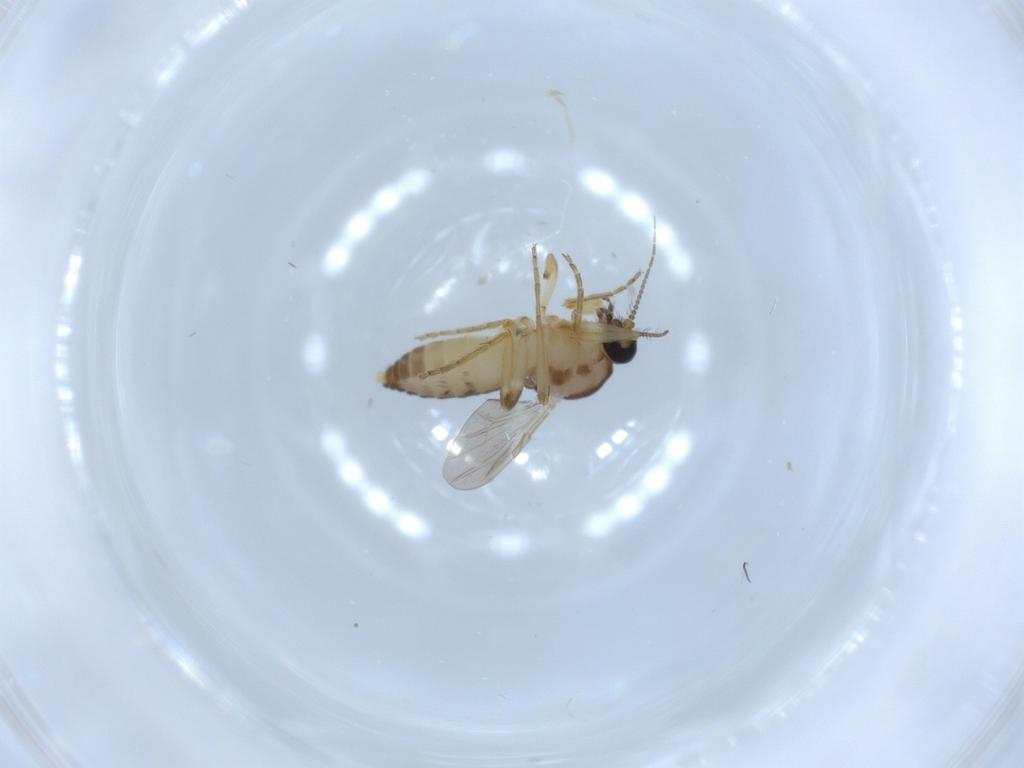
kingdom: Animalia
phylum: Arthropoda
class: Insecta
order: Diptera
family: Ceratopogonidae
